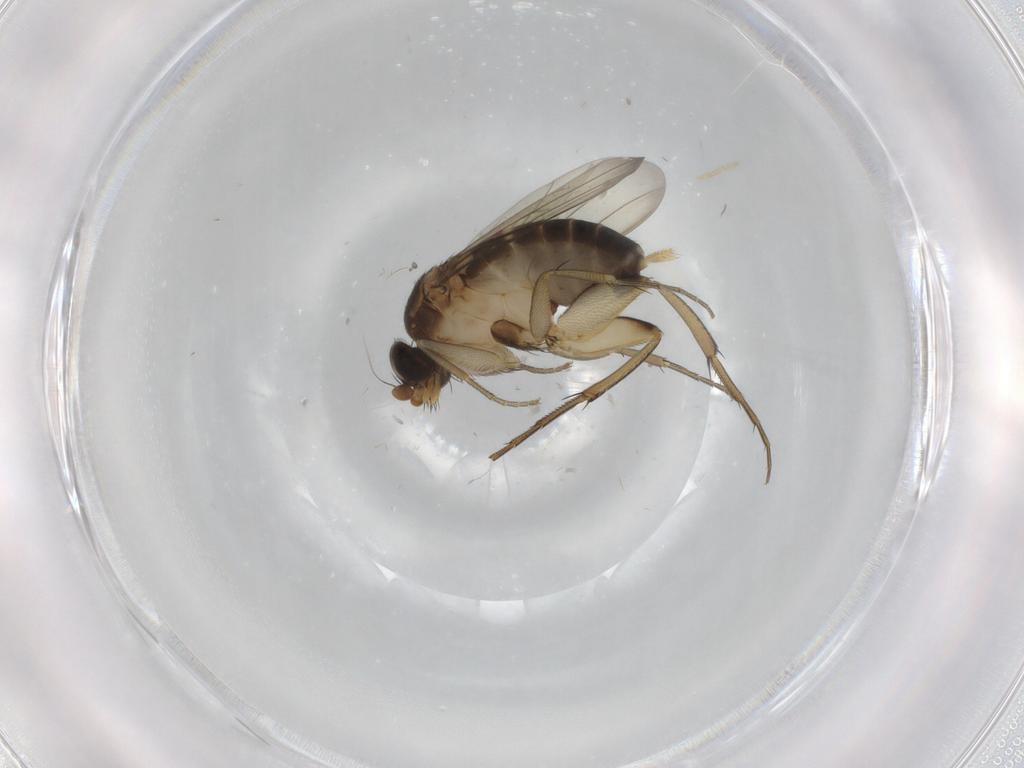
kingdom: Animalia
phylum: Arthropoda
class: Insecta
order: Diptera
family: Phoridae
